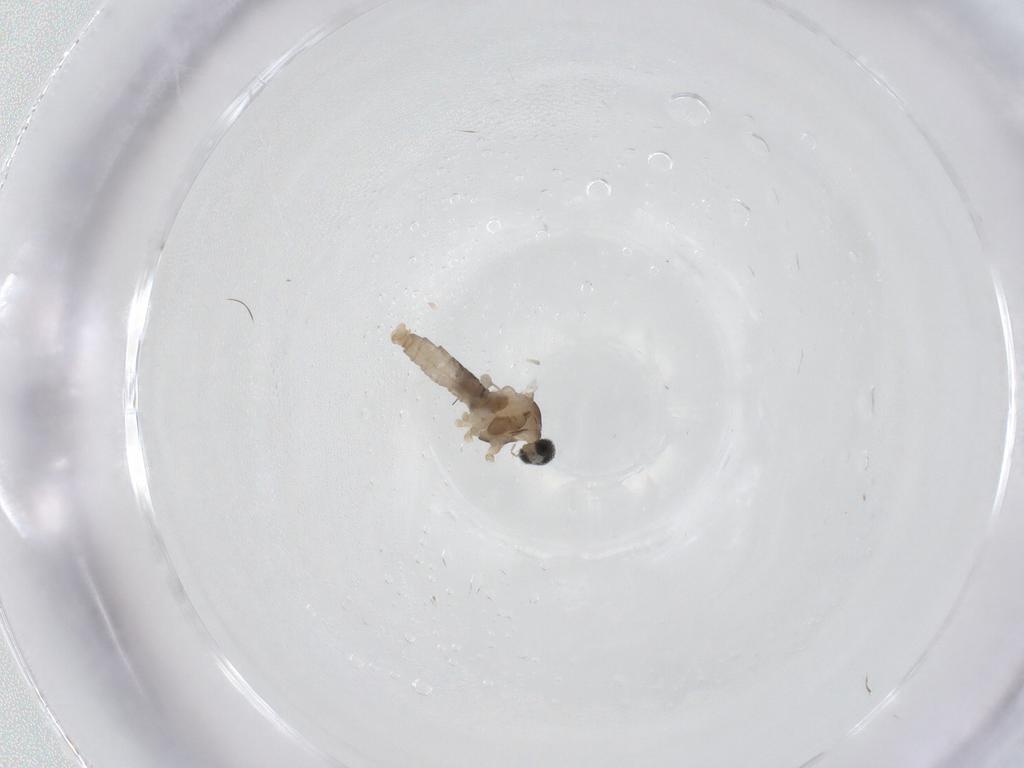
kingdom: Animalia
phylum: Arthropoda
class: Insecta
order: Diptera
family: Cecidomyiidae
